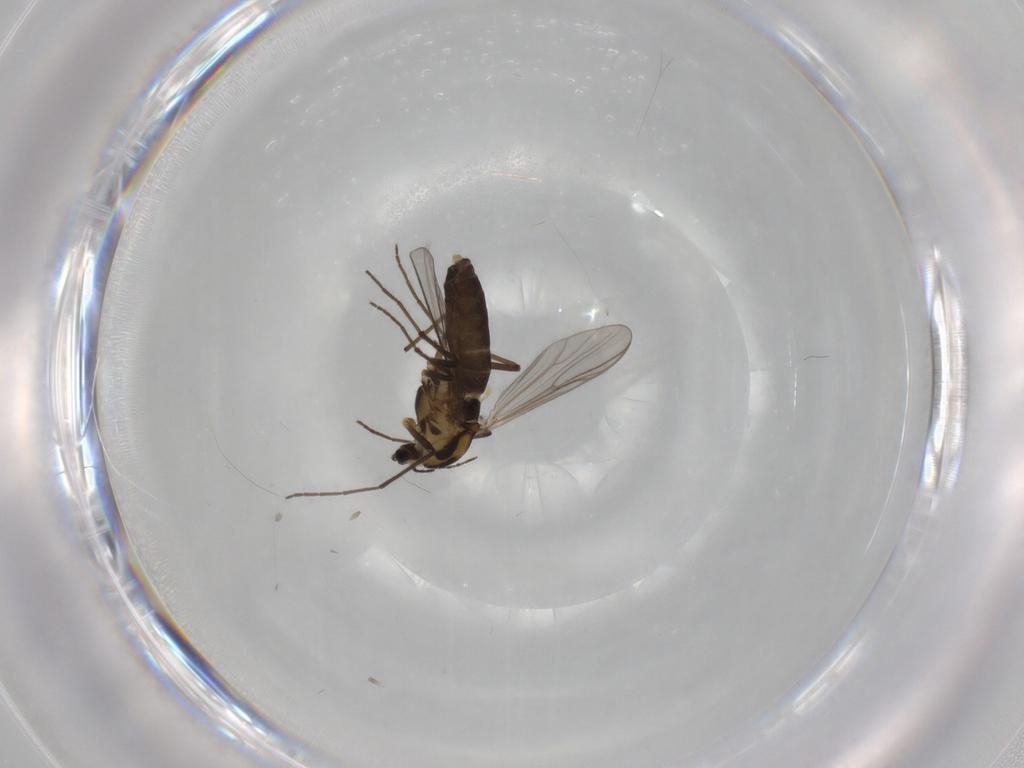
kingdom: Animalia
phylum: Arthropoda
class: Insecta
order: Diptera
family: Chironomidae
